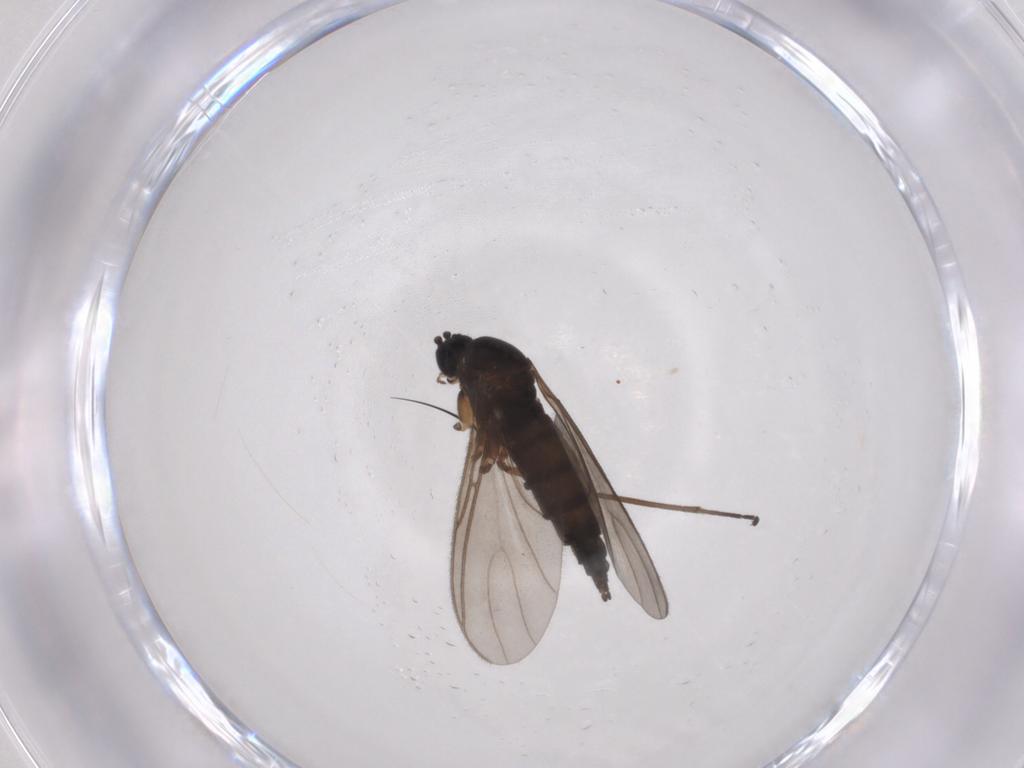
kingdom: Animalia
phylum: Arthropoda
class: Insecta
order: Diptera
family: Sciaridae
